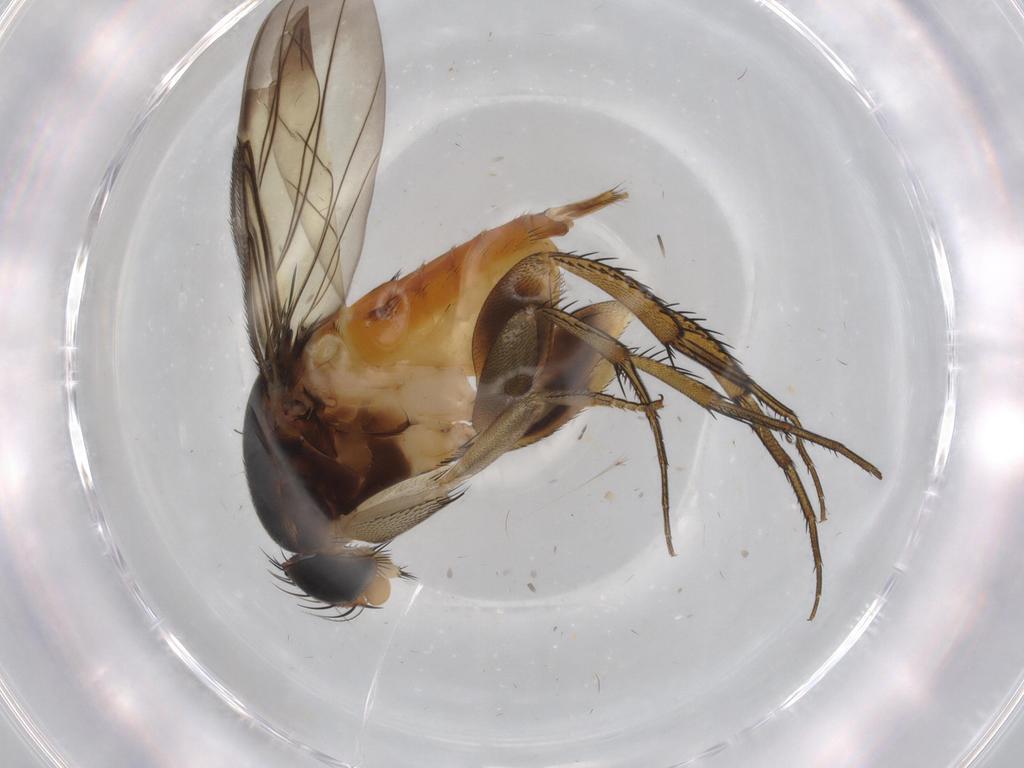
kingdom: Animalia
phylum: Arthropoda
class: Insecta
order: Diptera
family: Phoridae
